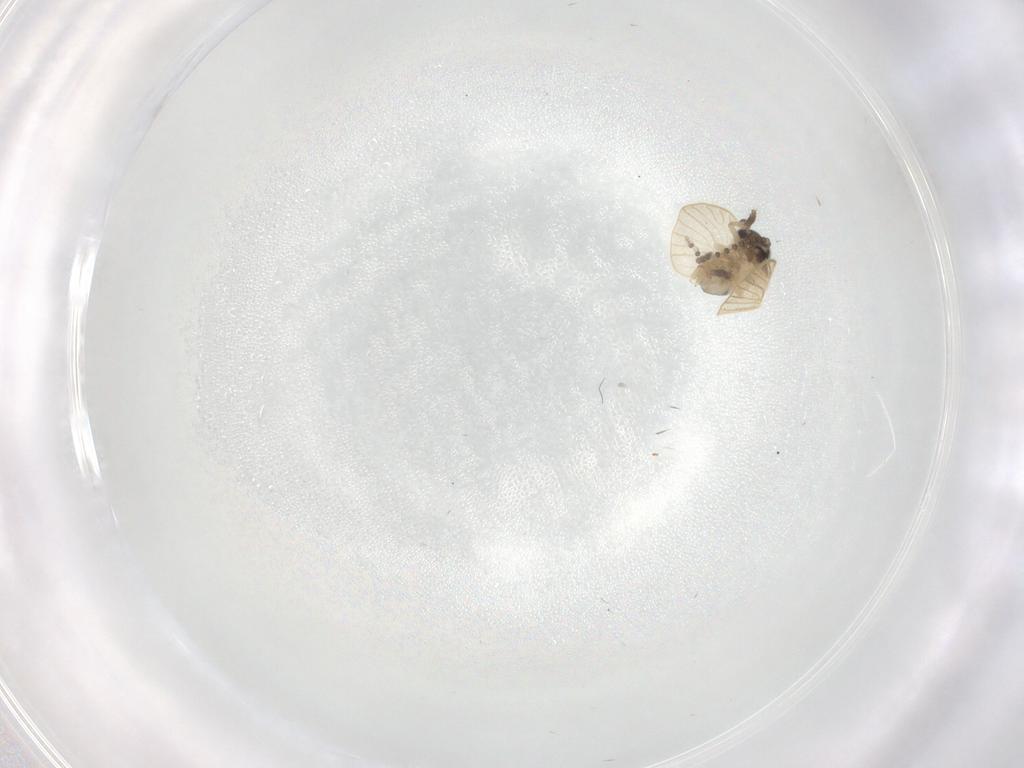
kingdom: Animalia
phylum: Arthropoda
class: Insecta
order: Diptera
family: Psychodidae
